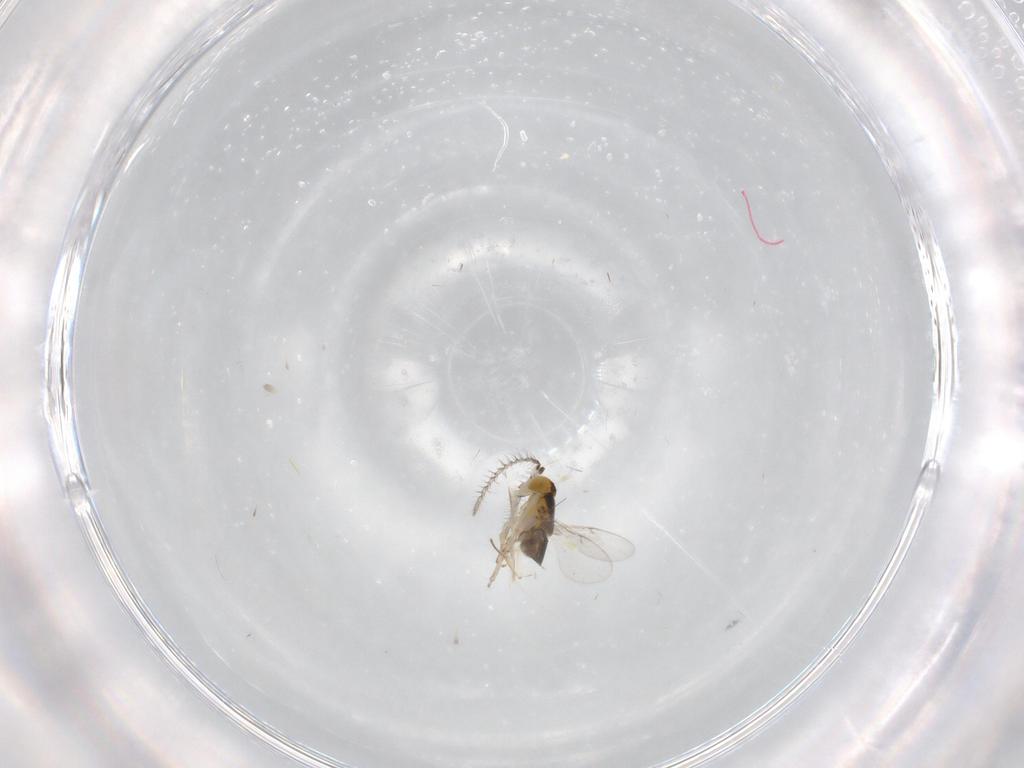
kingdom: Animalia
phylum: Arthropoda
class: Insecta
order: Hymenoptera
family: Encyrtidae
